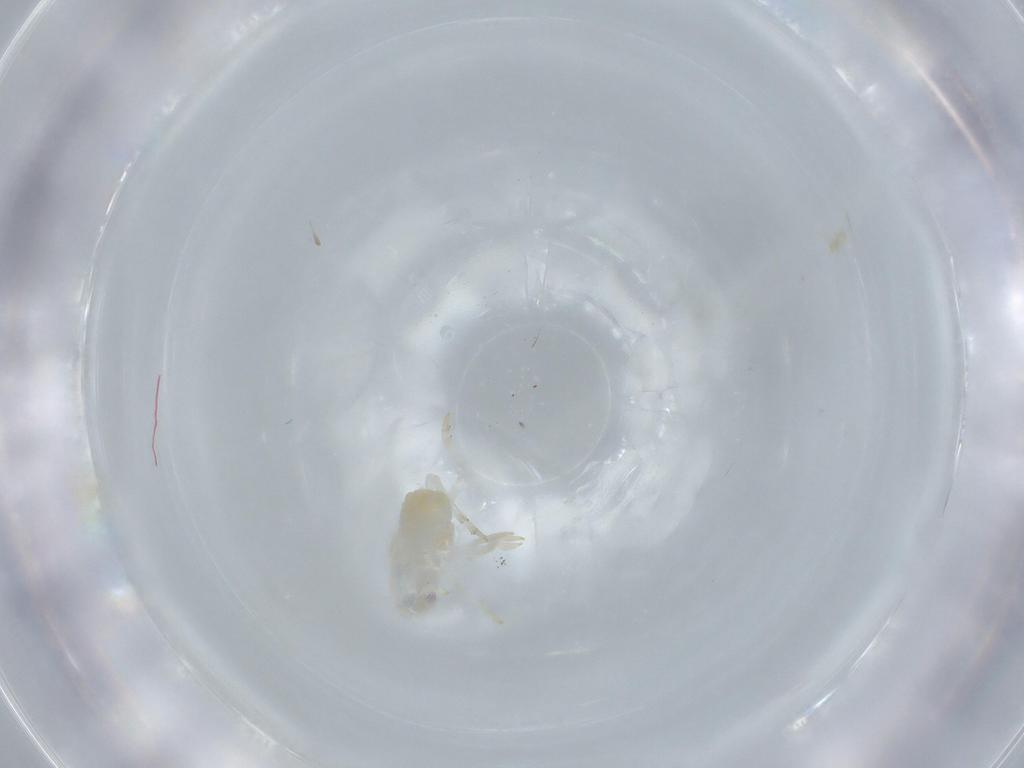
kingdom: Animalia
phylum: Arthropoda
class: Insecta
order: Hemiptera
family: Flatidae
